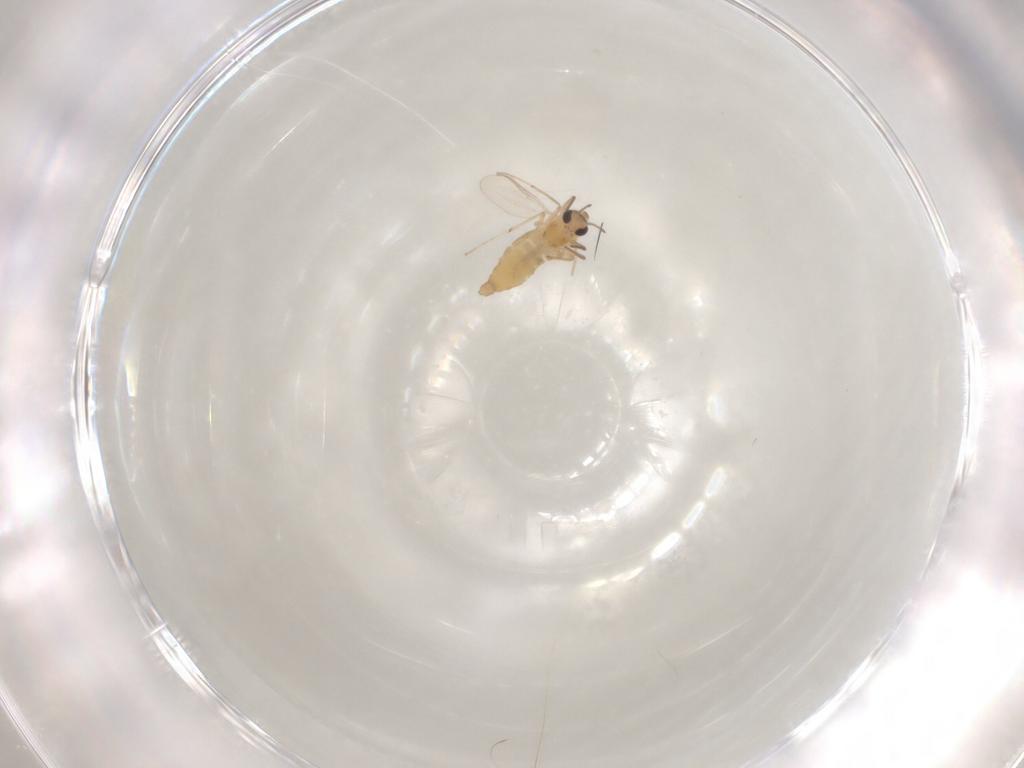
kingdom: Animalia
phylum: Arthropoda
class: Insecta
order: Diptera
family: Chironomidae
